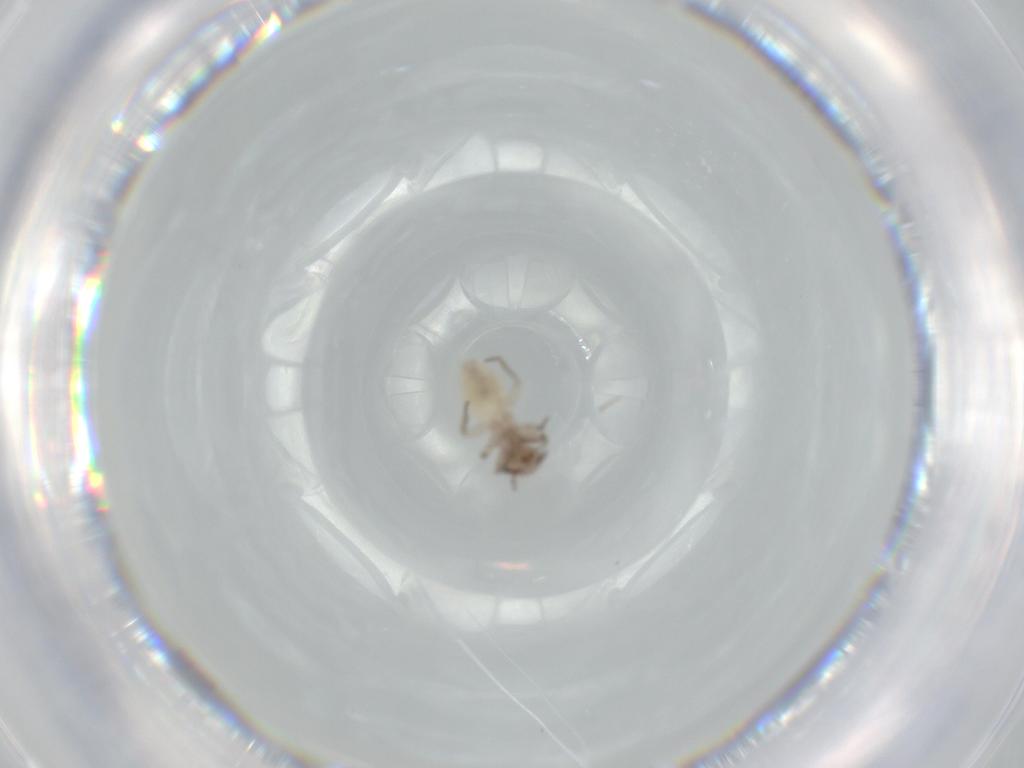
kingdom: Animalia
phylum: Arthropoda
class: Insecta
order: Psocodea
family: Lepidopsocidae
